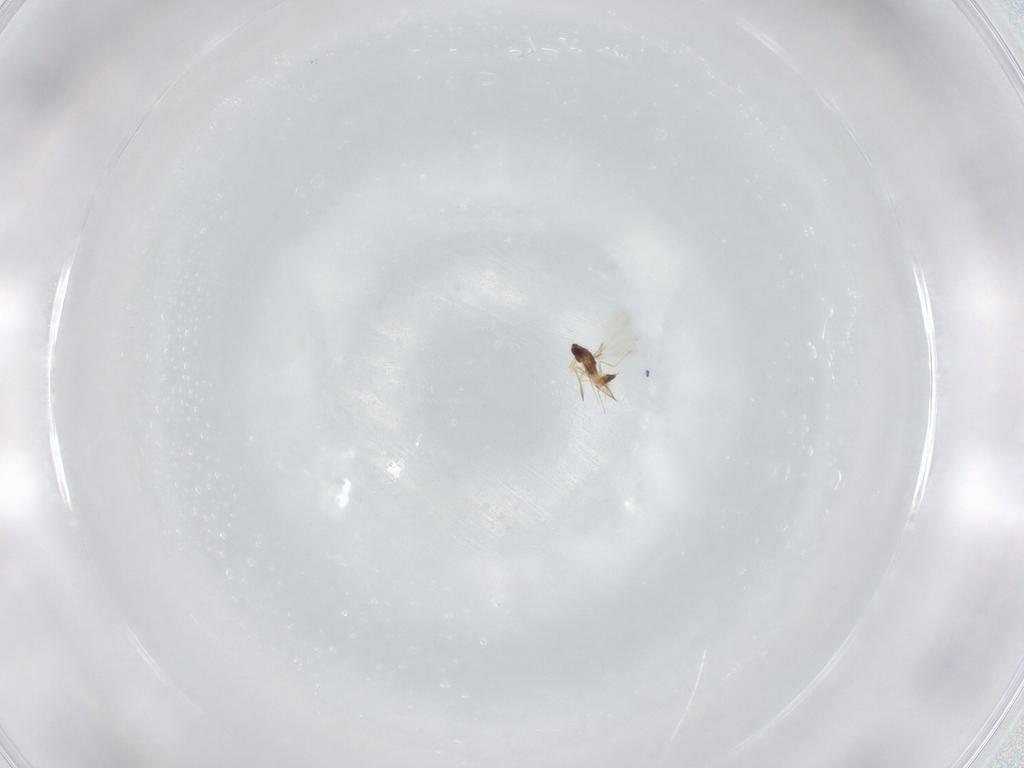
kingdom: Animalia
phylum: Arthropoda
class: Insecta
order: Hymenoptera
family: Mymaridae
